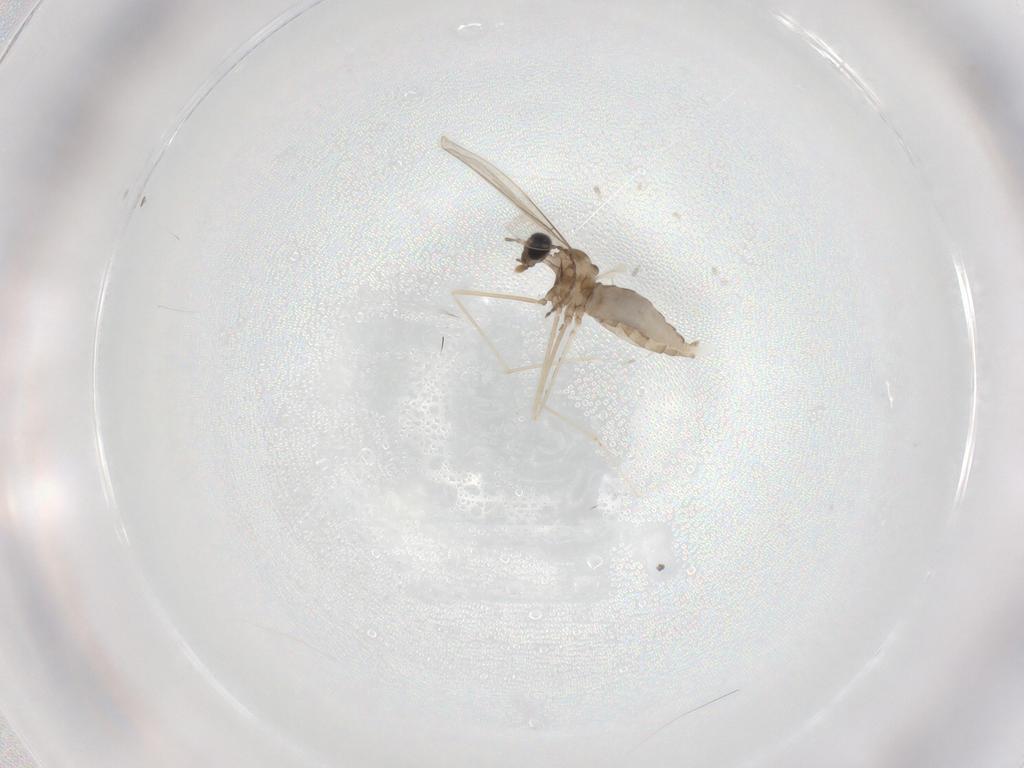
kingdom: Animalia
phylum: Arthropoda
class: Insecta
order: Diptera
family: Cecidomyiidae
